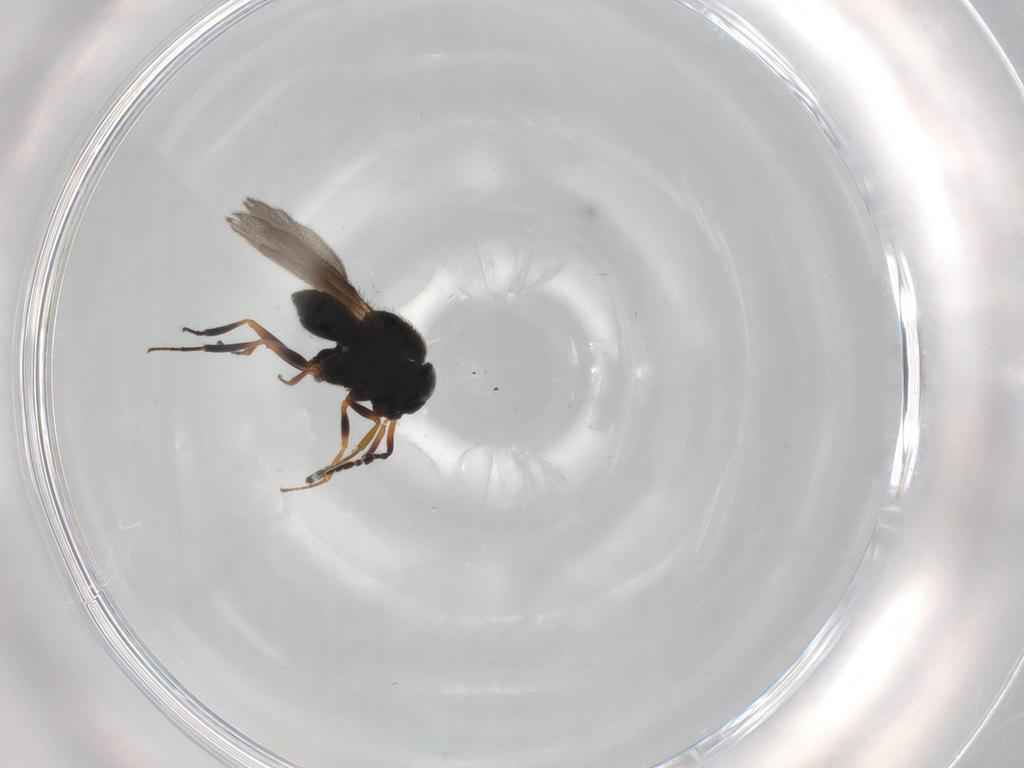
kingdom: Animalia
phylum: Arthropoda
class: Insecta
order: Hymenoptera
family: Scelionidae
